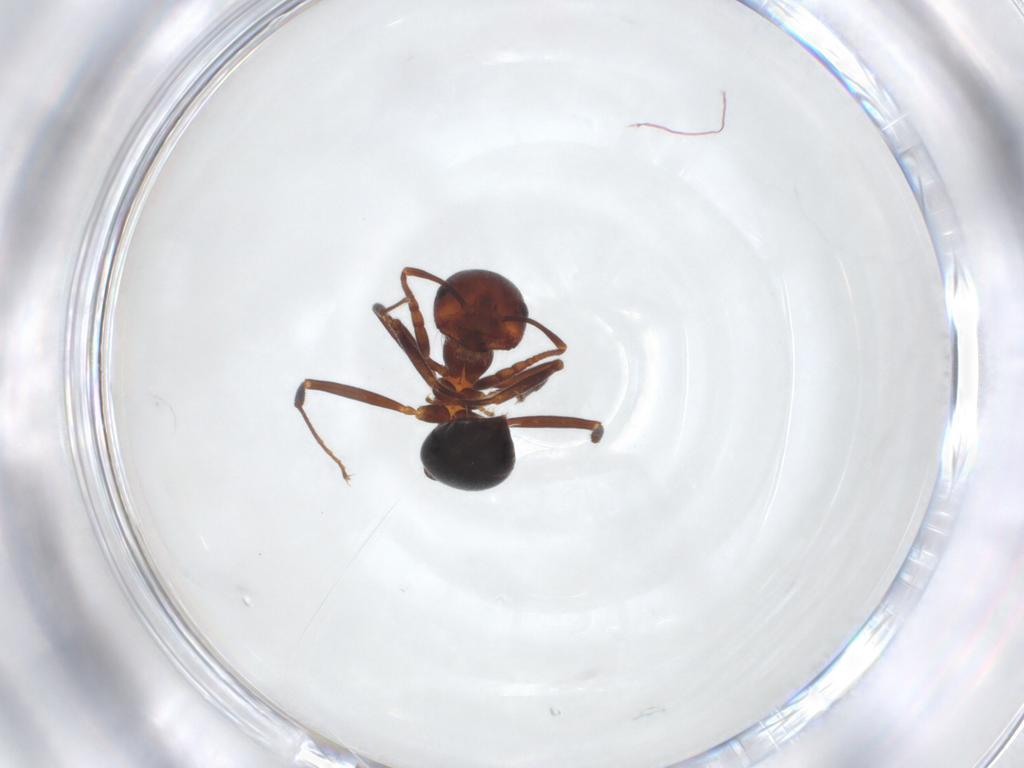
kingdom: Animalia
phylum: Arthropoda
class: Insecta
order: Hymenoptera
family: Formicidae
